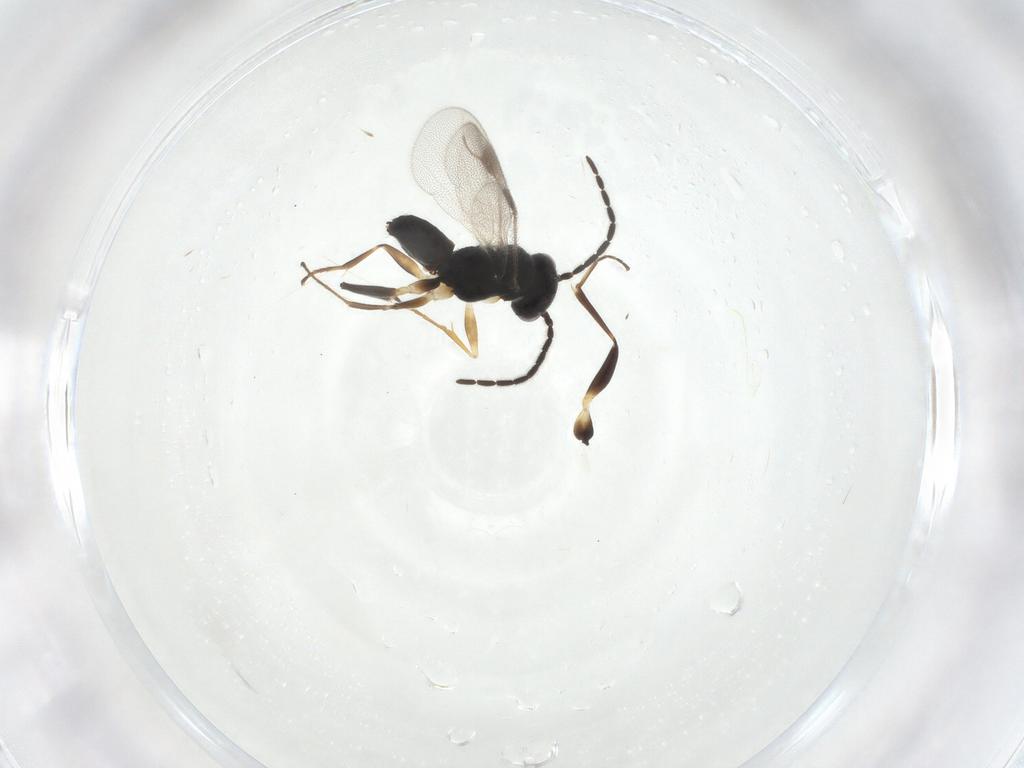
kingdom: Animalia
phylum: Arthropoda
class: Insecta
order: Hymenoptera
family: Dryinidae
